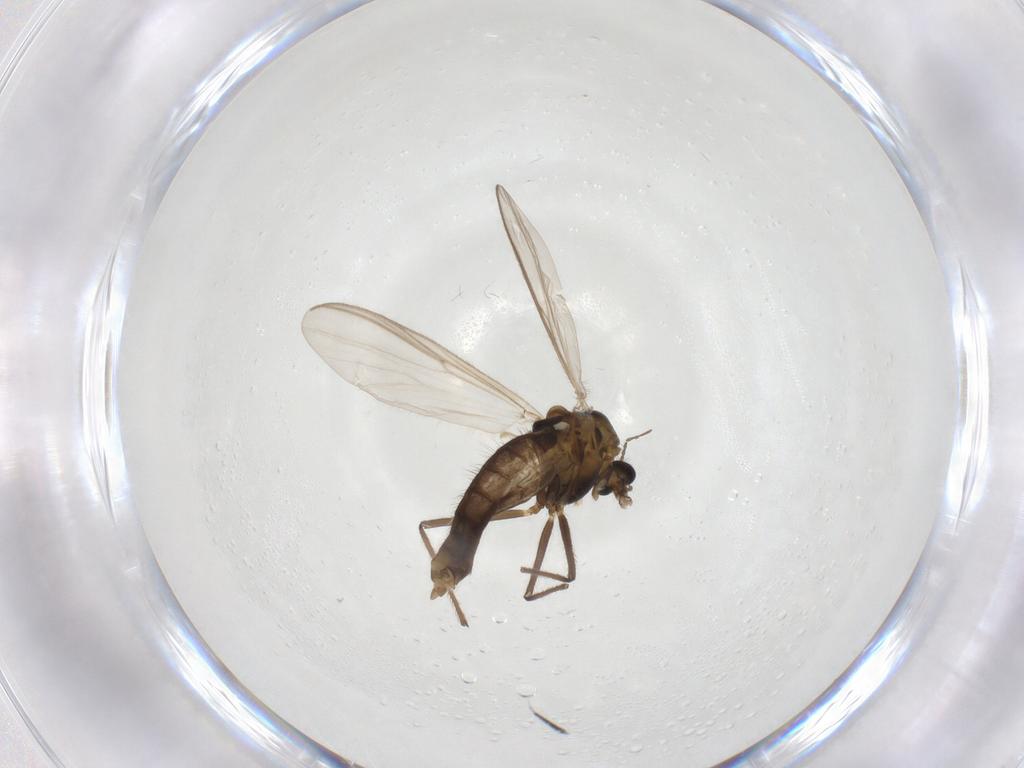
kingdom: Animalia
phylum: Arthropoda
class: Insecta
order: Diptera
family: Chironomidae
